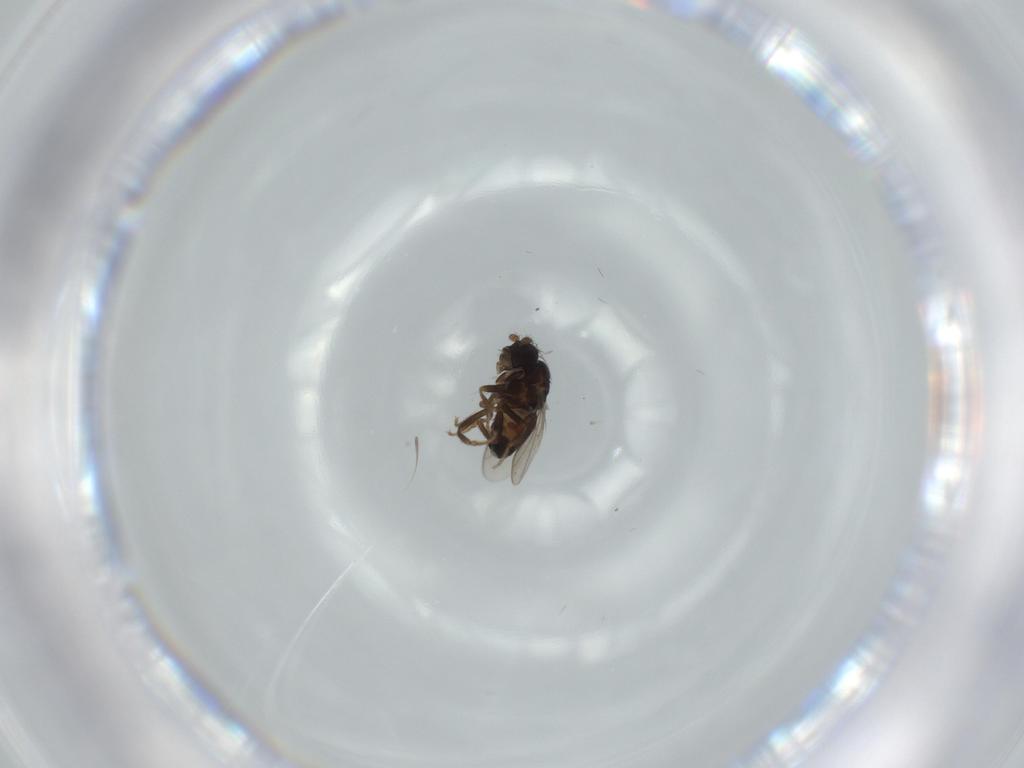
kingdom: Animalia
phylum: Arthropoda
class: Insecta
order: Diptera
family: Sphaeroceridae
